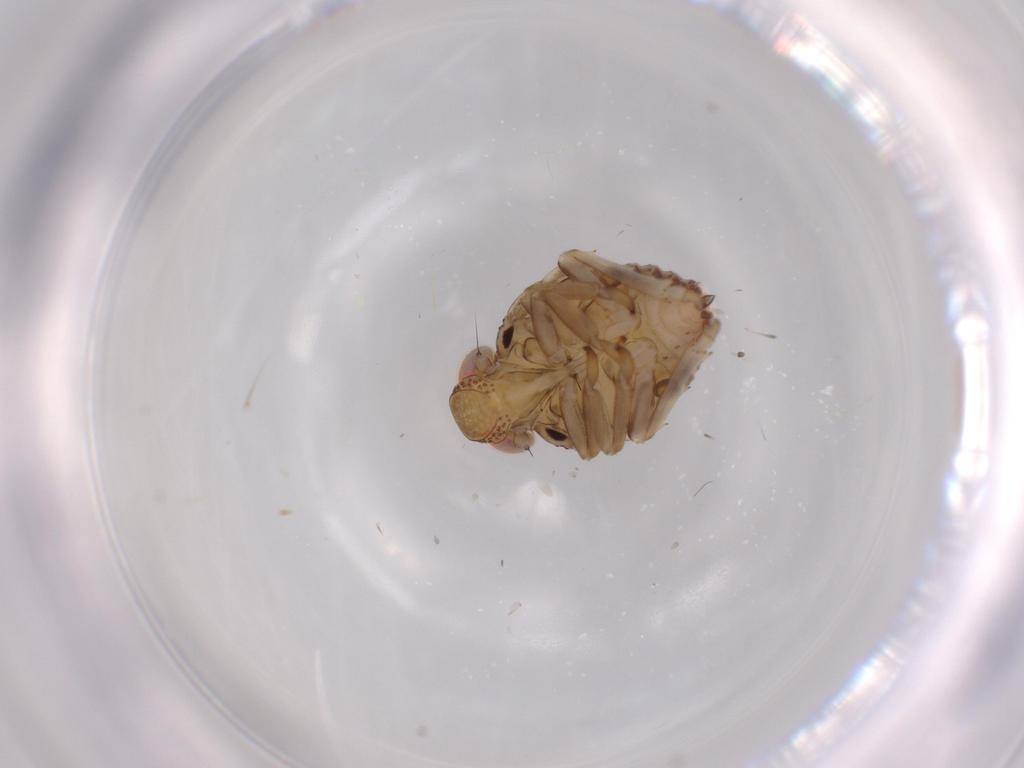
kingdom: Animalia
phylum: Arthropoda
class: Insecta
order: Hemiptera
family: Issidae
